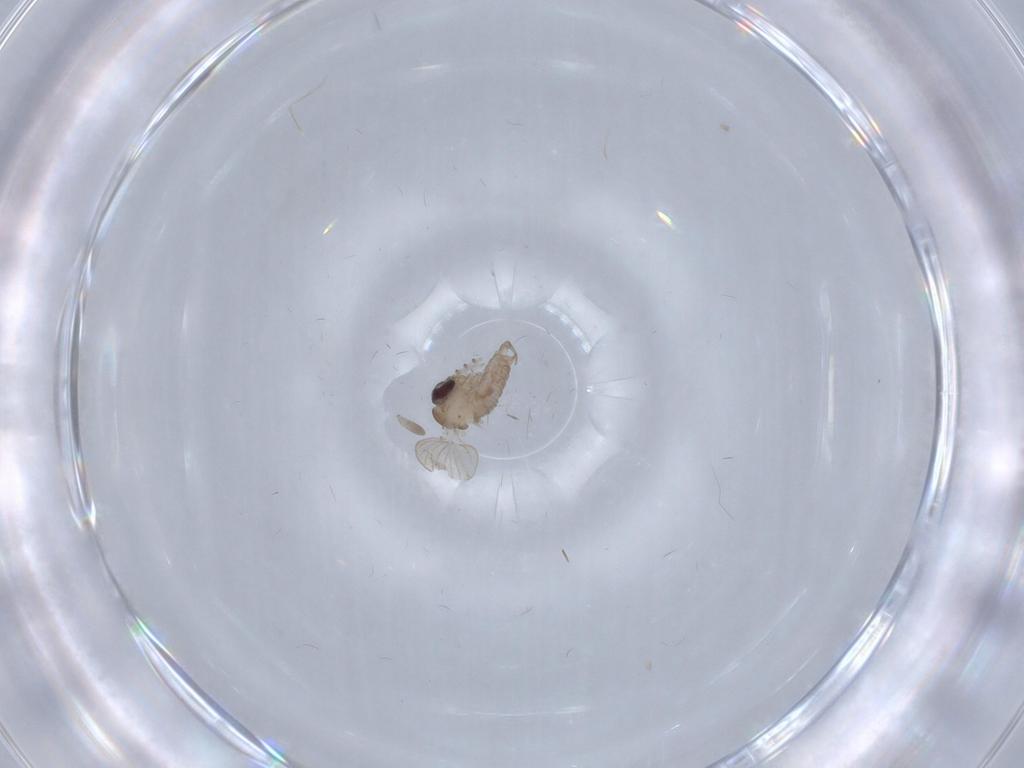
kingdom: Animalia
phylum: Arthropoda
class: Insecta
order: Diptera
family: Psychodidae
